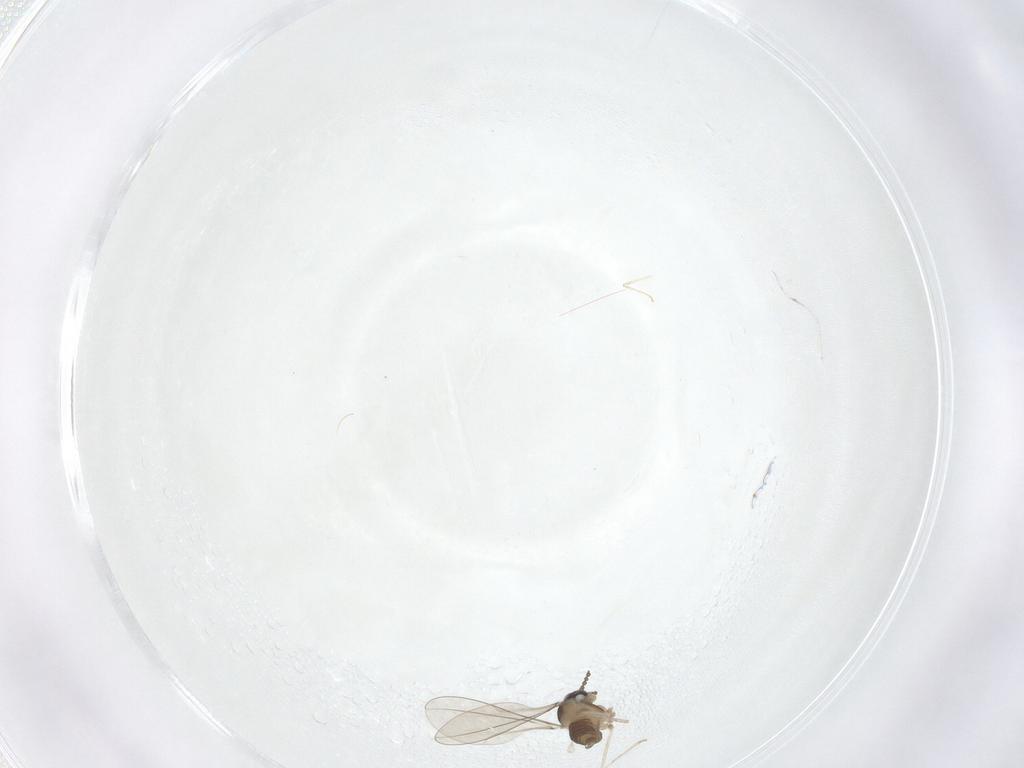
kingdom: Animalia
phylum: Arthropoda
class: Insecta
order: Diptera
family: Cecidomyiidae
